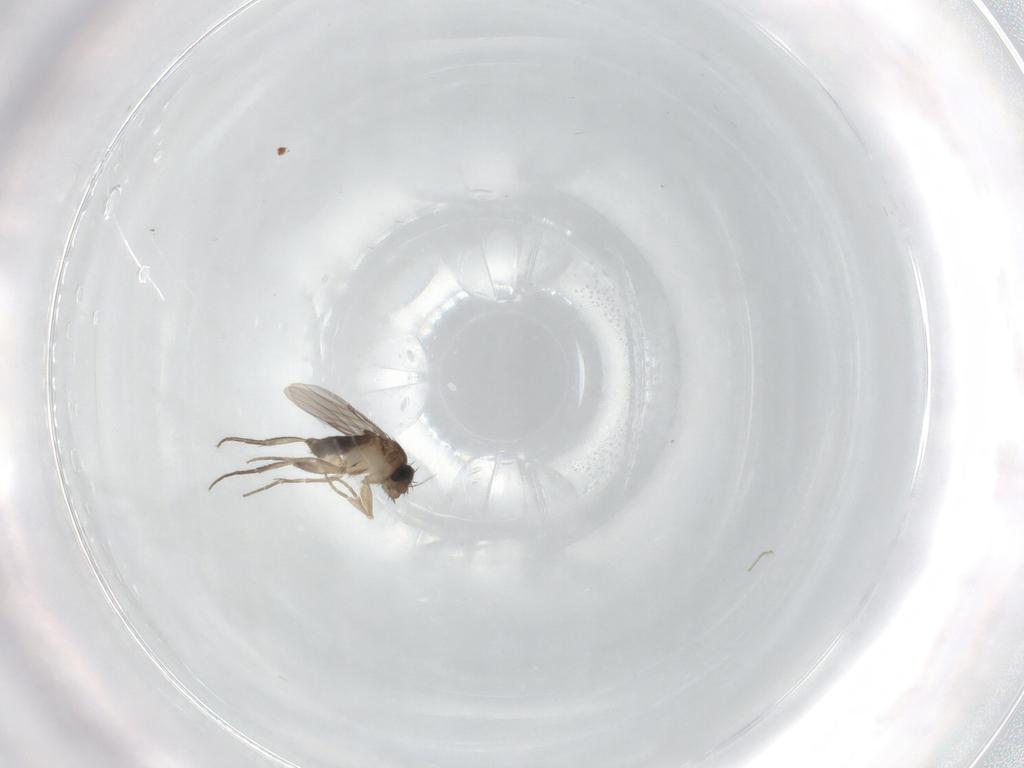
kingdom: Animalia
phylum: Arthropoda
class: Insecta
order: Diptera
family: Phoridae
